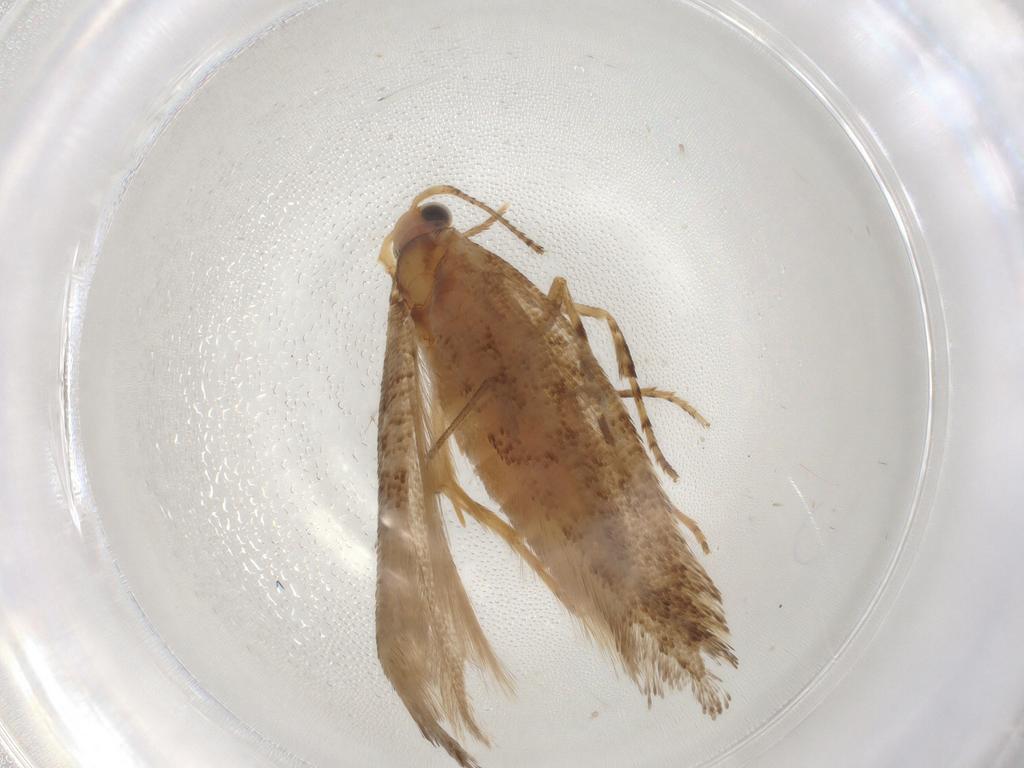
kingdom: Animalia
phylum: Arthropoda
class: Insecta
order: Lepidoptera
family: Argyresthiidae
